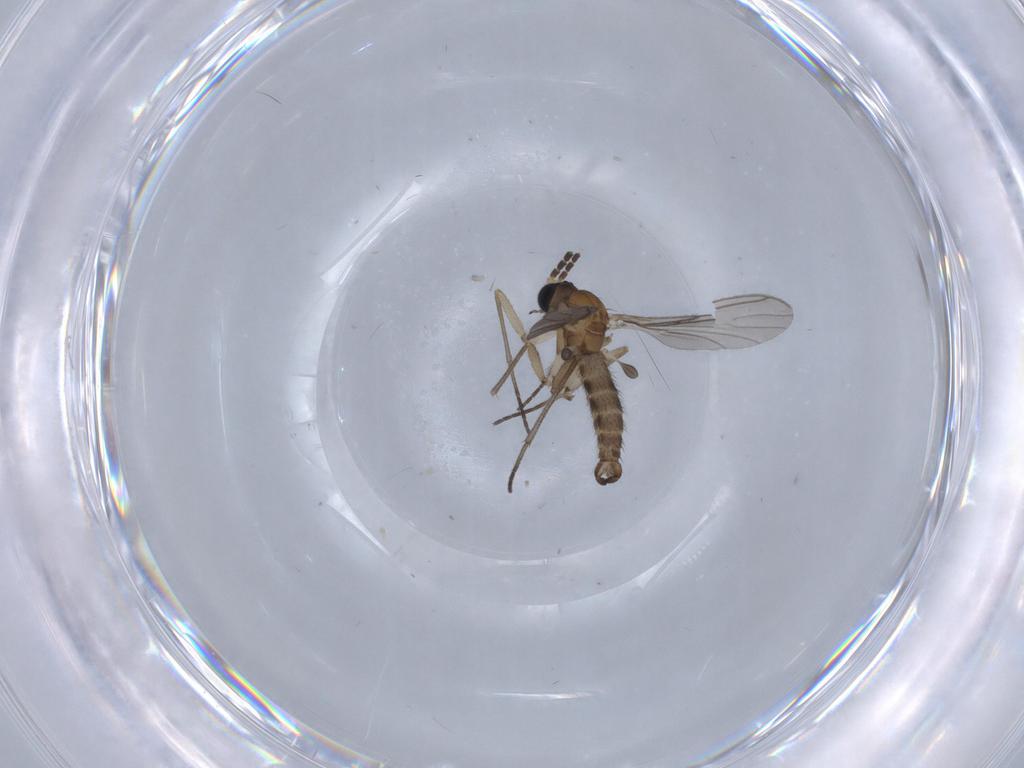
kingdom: Animalia
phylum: Arthropoda
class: Insecta
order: Diptera
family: Sciaridae
